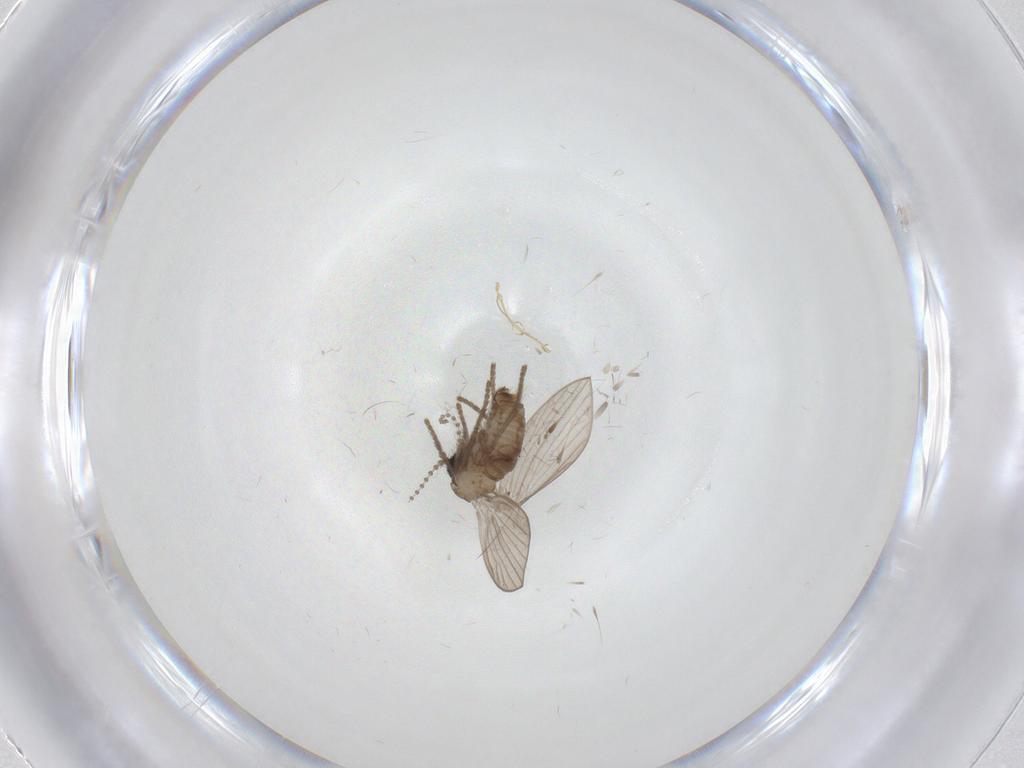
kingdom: Animalia
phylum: Arthropoda
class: Insecta
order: Diptera
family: Psychodidae
